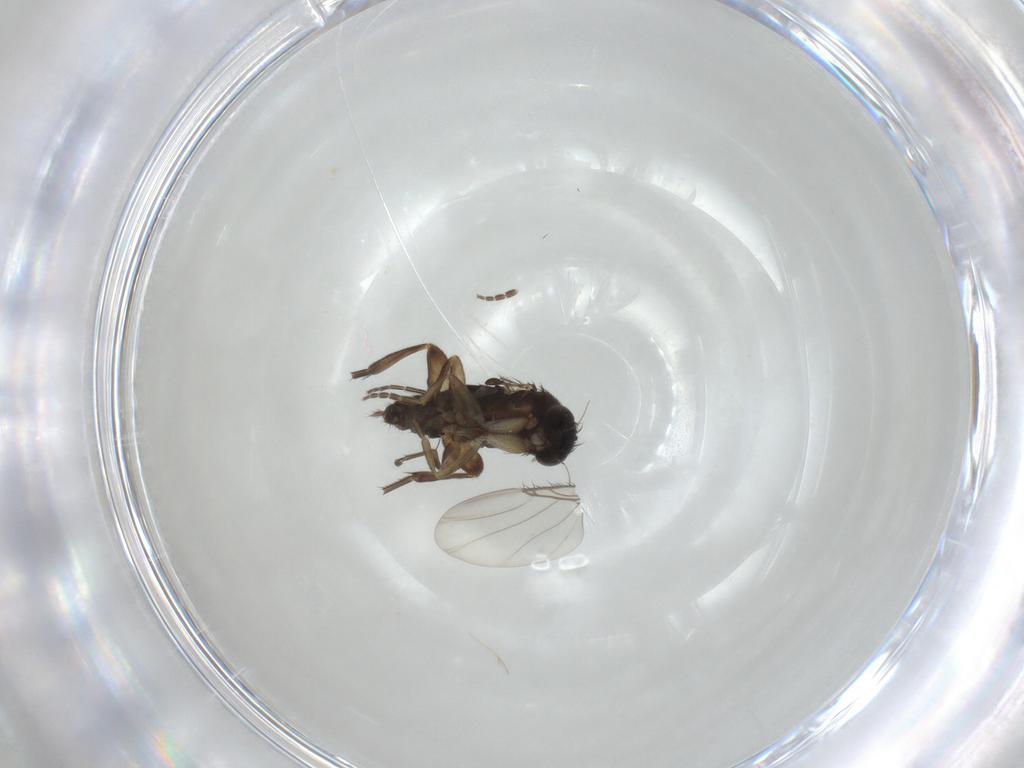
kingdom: Animalia
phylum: Arthropoda
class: Insecta
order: Diptera
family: Phoridae
